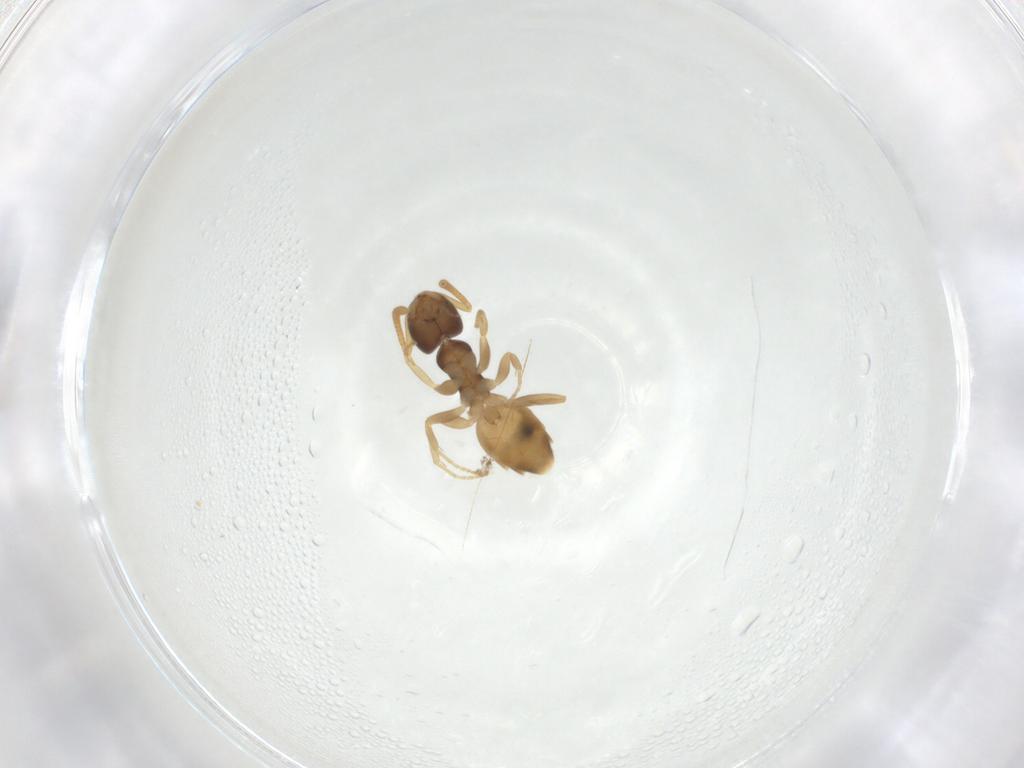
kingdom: Animalia
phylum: Arthropoda
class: Insecta
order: Hymenoptera
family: Formicidae
